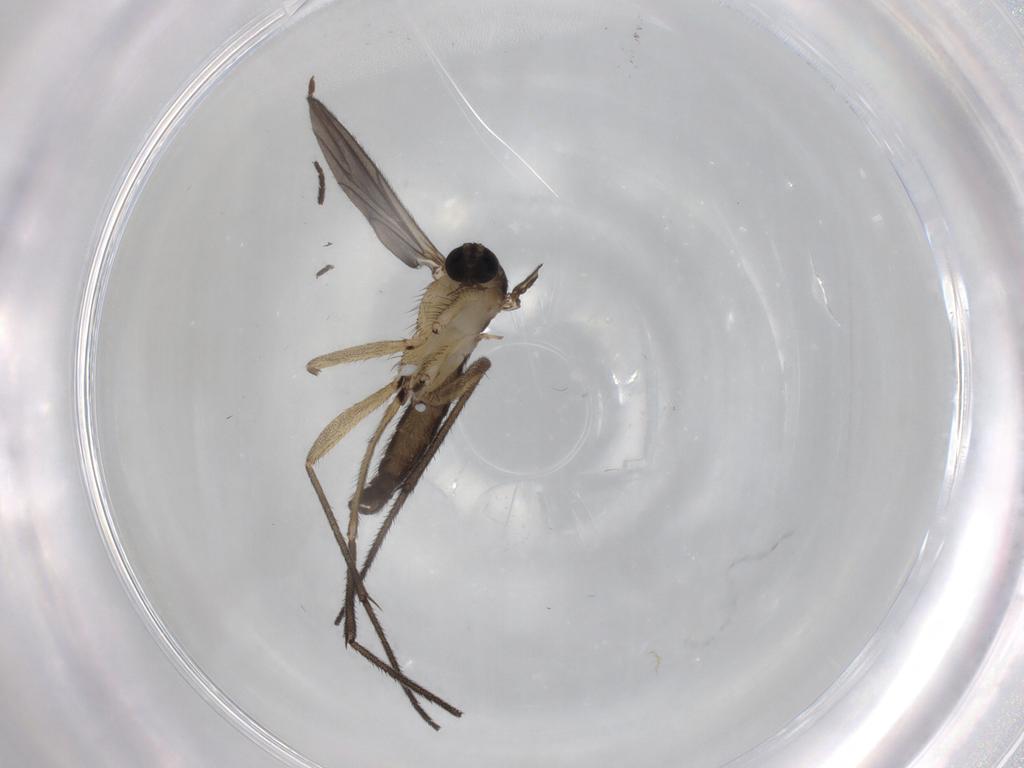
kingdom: Animalia
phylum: Arthropoda
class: Insecta
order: Diptera
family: Sciaridae
